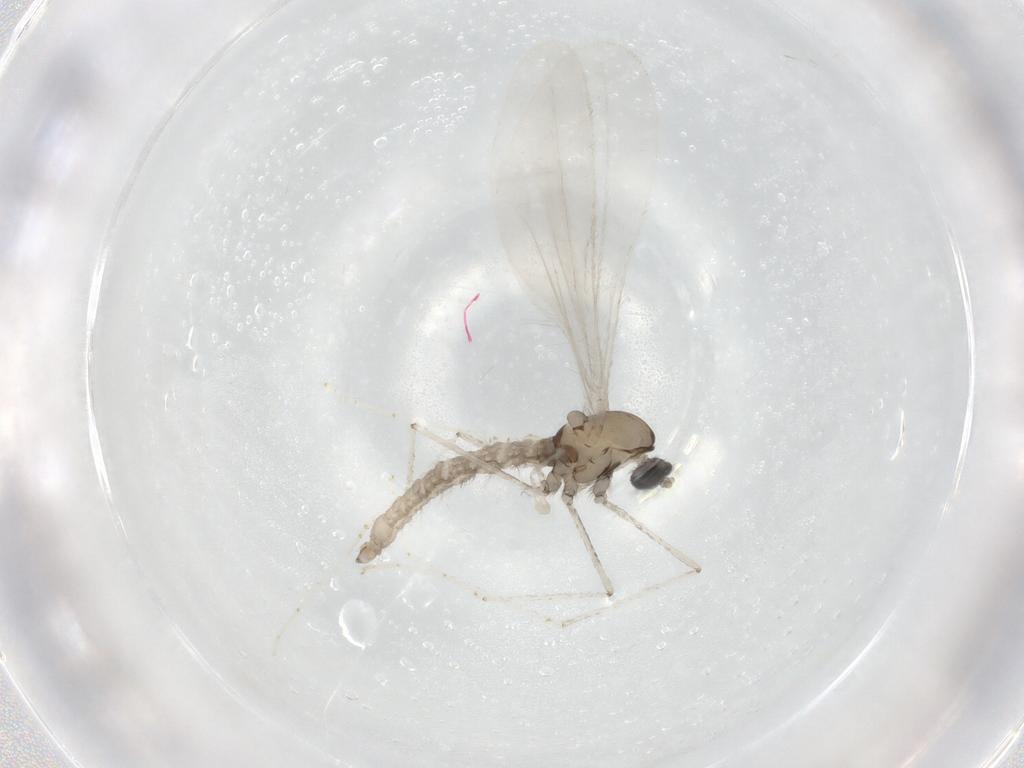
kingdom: Animalia
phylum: Arthropoda
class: Insecta
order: Diptera
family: Cecidomyiidae
